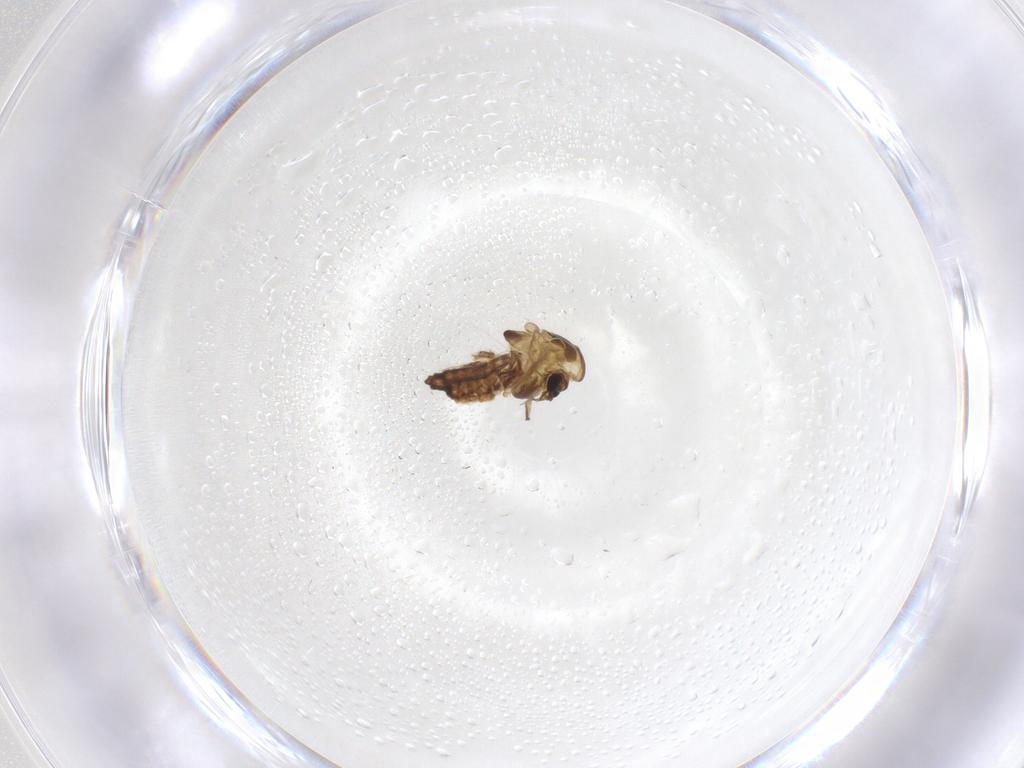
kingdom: Animalia
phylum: Arthropoda
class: Insecta
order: Diptera
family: Chironomidae
